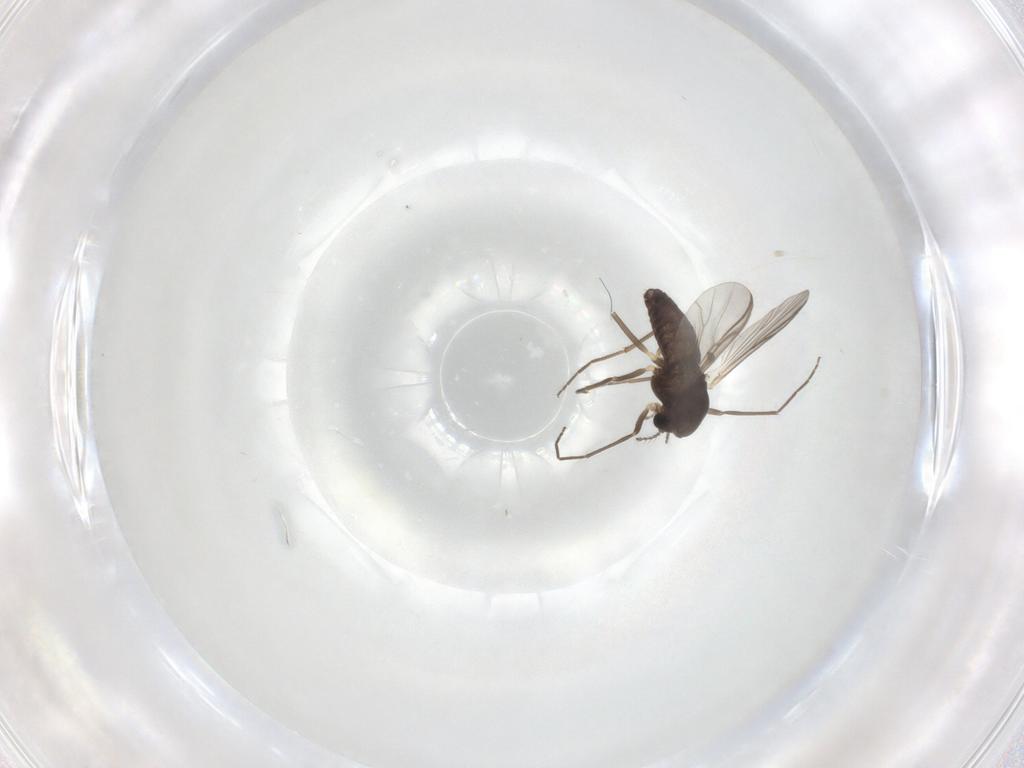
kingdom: Animalia
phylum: Arthropoda
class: Insecta
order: Diptera
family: Chironomidae
